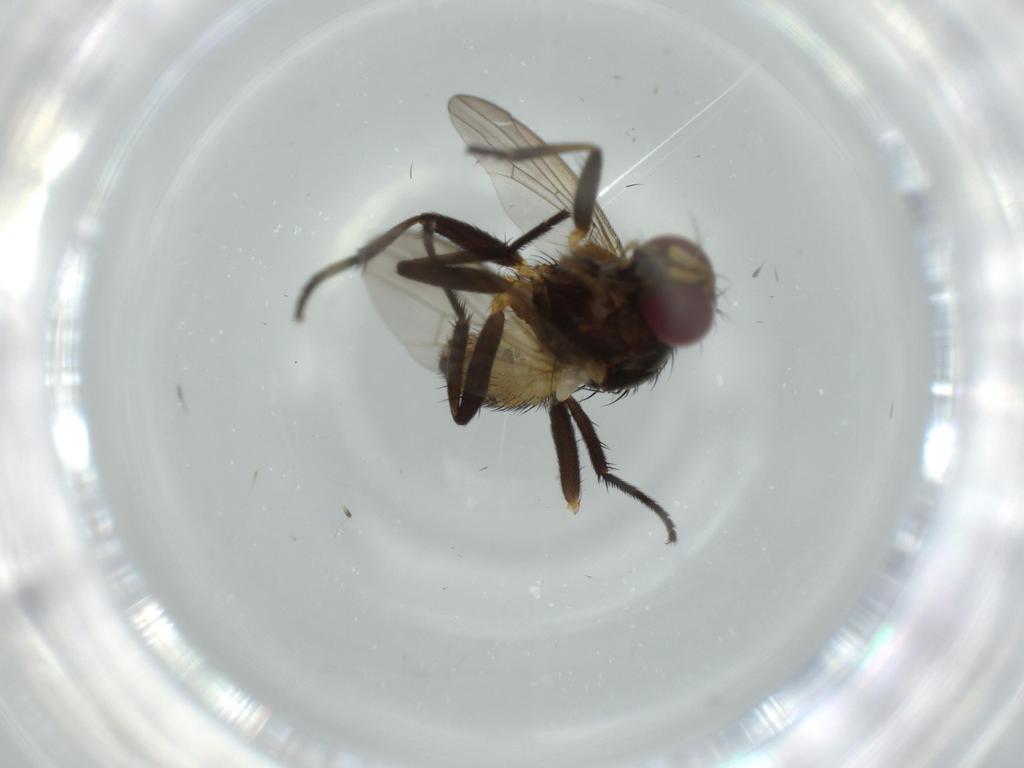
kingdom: Animalia
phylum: Arthropoda
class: Insecta
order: Diptera
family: Anthomyiidae
